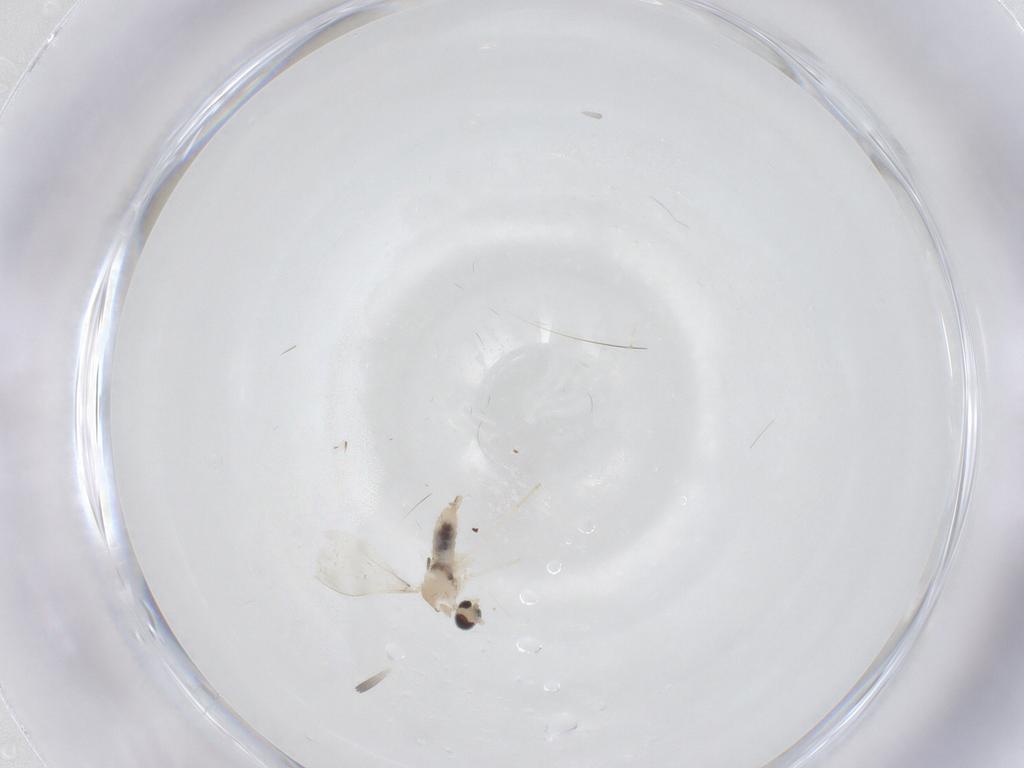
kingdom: Animalia
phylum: Arthropoda
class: Insecta
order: Diptera
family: Cecidomyiidae
